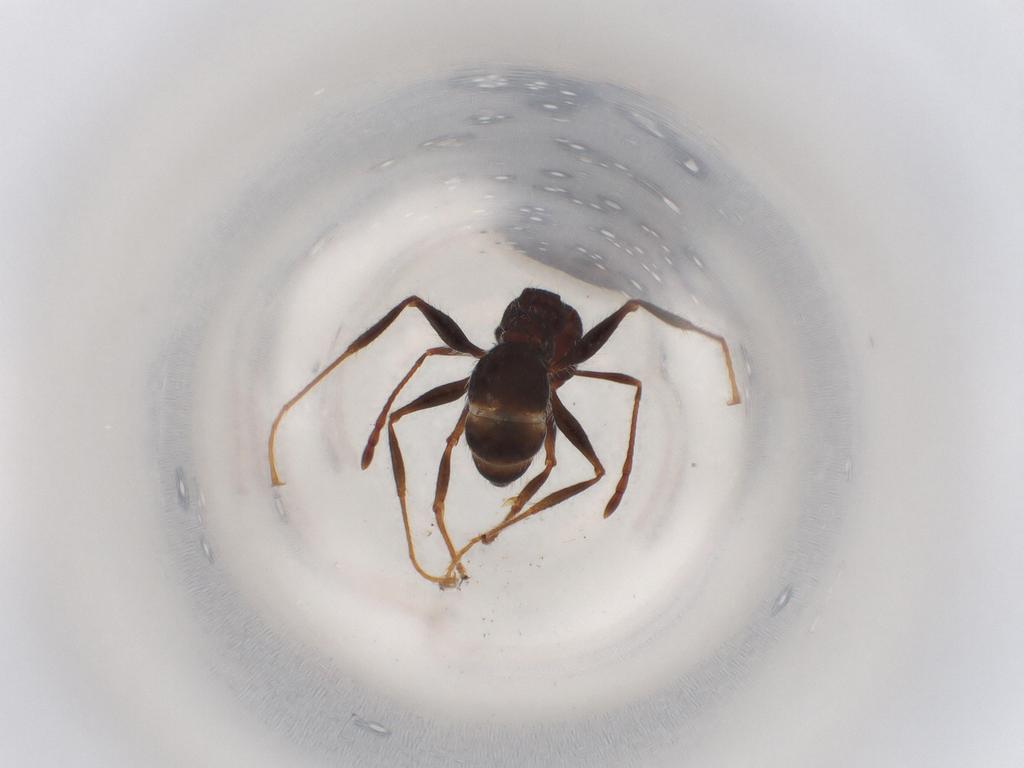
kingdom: Animalia
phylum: Arthropoda
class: Insecta
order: Hymenoptera
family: Formicidae
